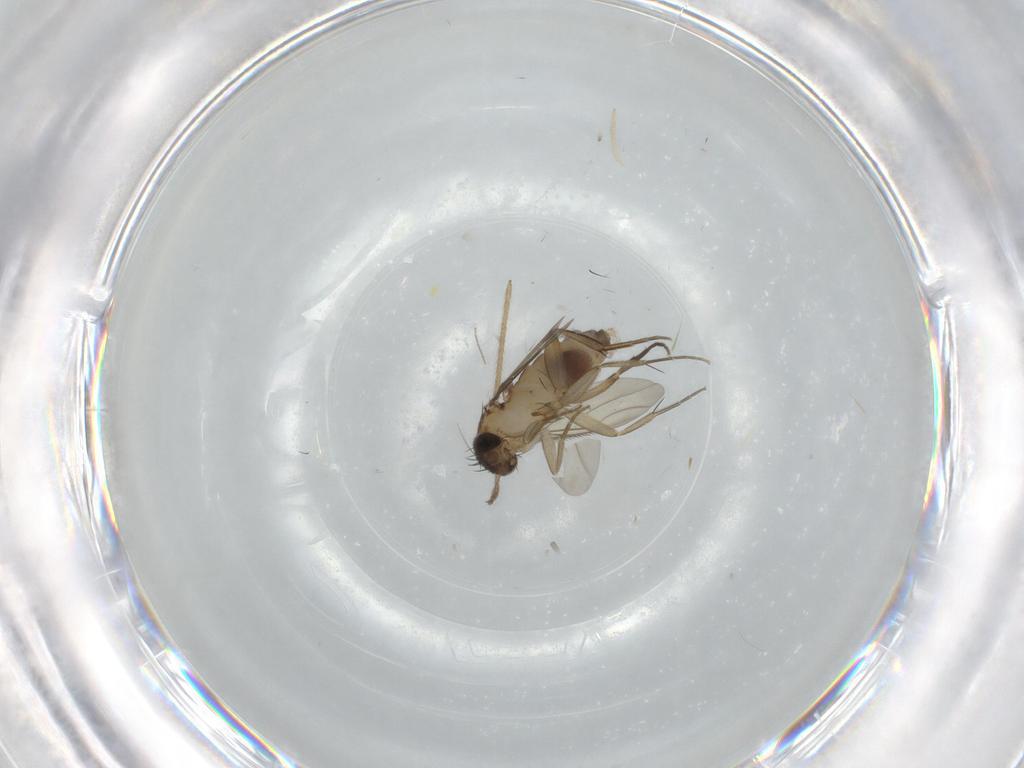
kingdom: Animalia
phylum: Arthropoda
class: Insecta
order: Diptera
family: Phoridae
